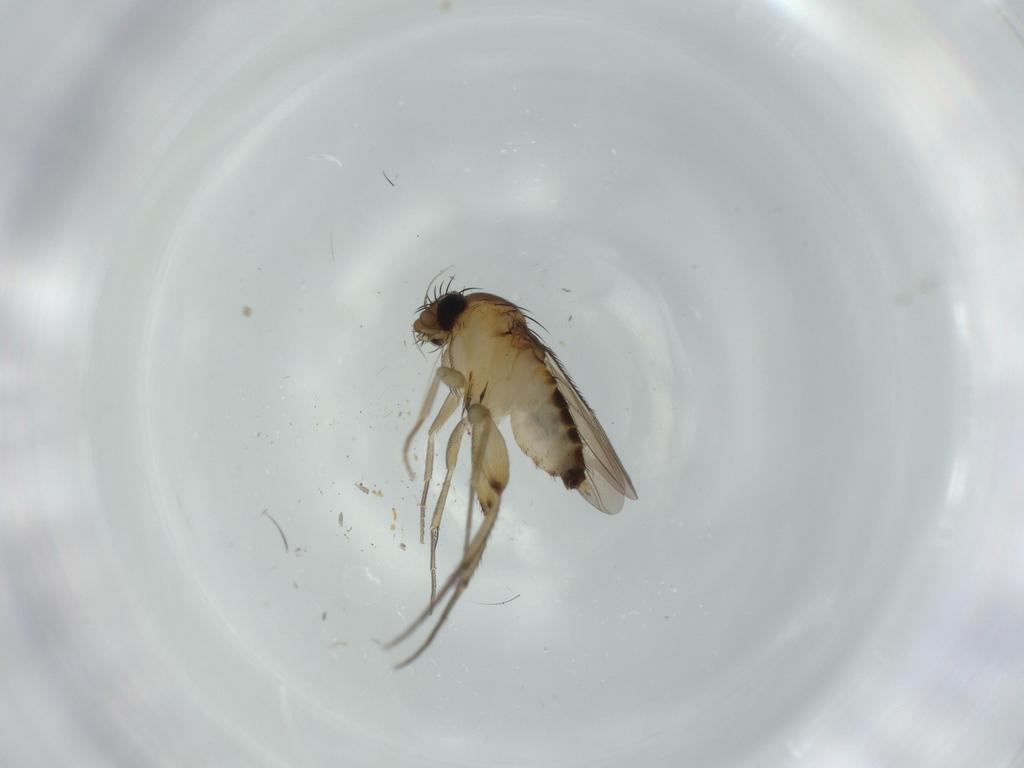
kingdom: Animalia
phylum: Arthropoda
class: Insecta
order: Diptera
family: Phoridae
